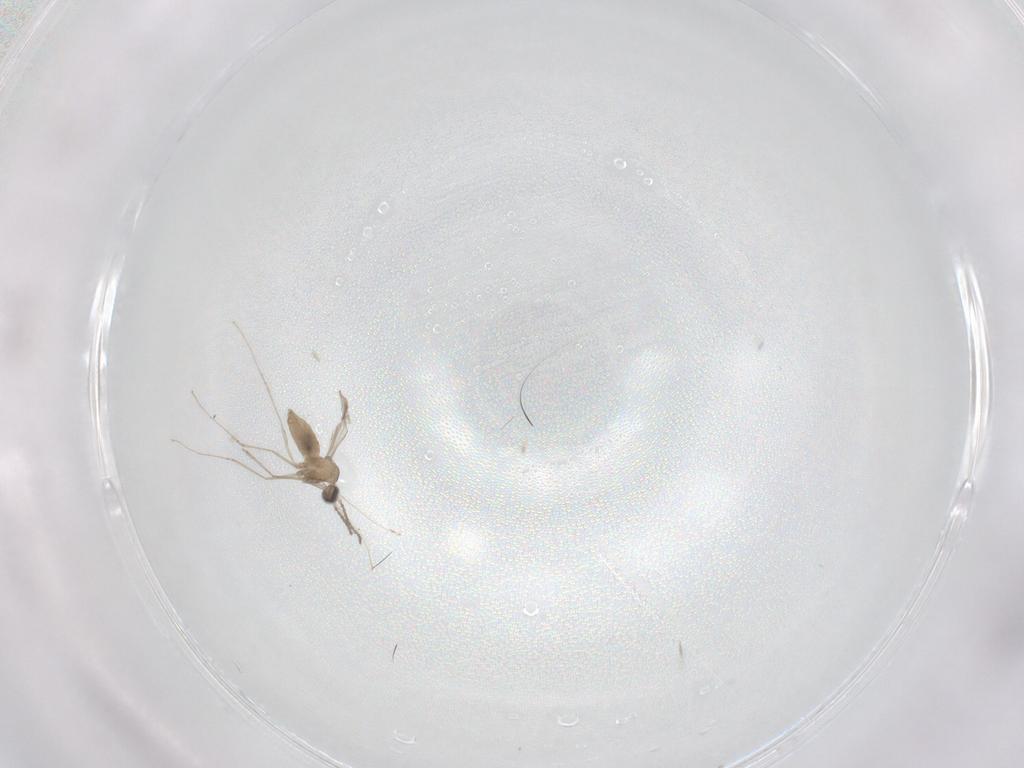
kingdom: Animalia
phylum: Arthropoda
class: Insecta
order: Diptera
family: Cecidomyiidae
